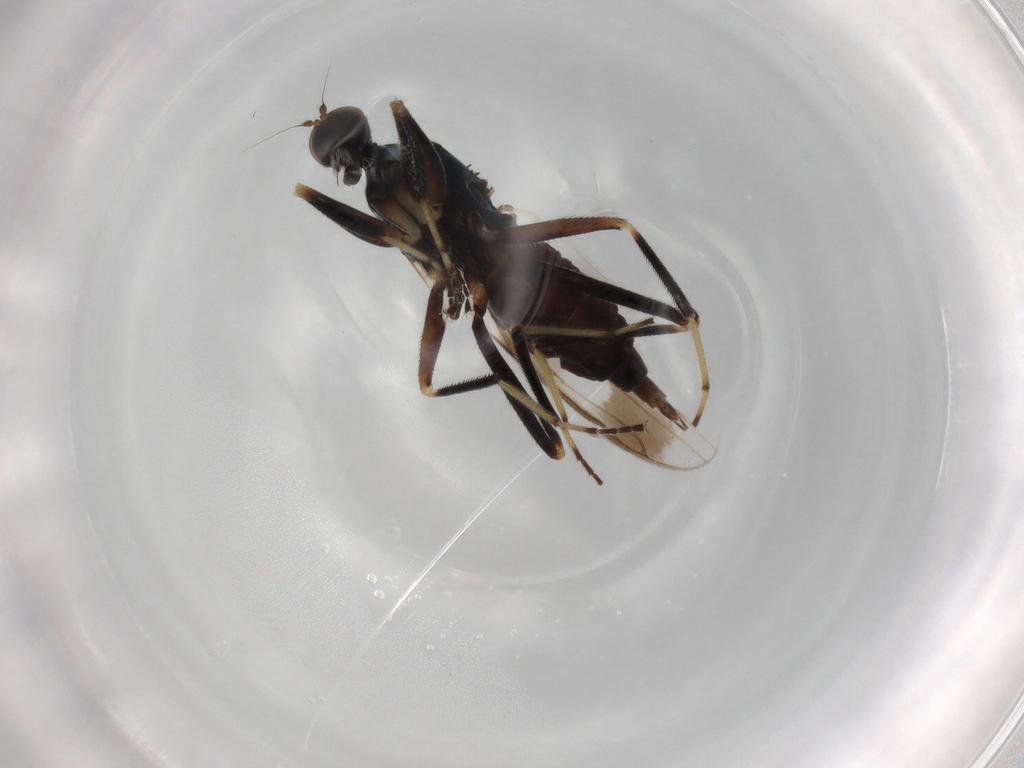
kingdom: Animalia
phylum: Arthropoda
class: Insecta
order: Diptera
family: Hybotidae
